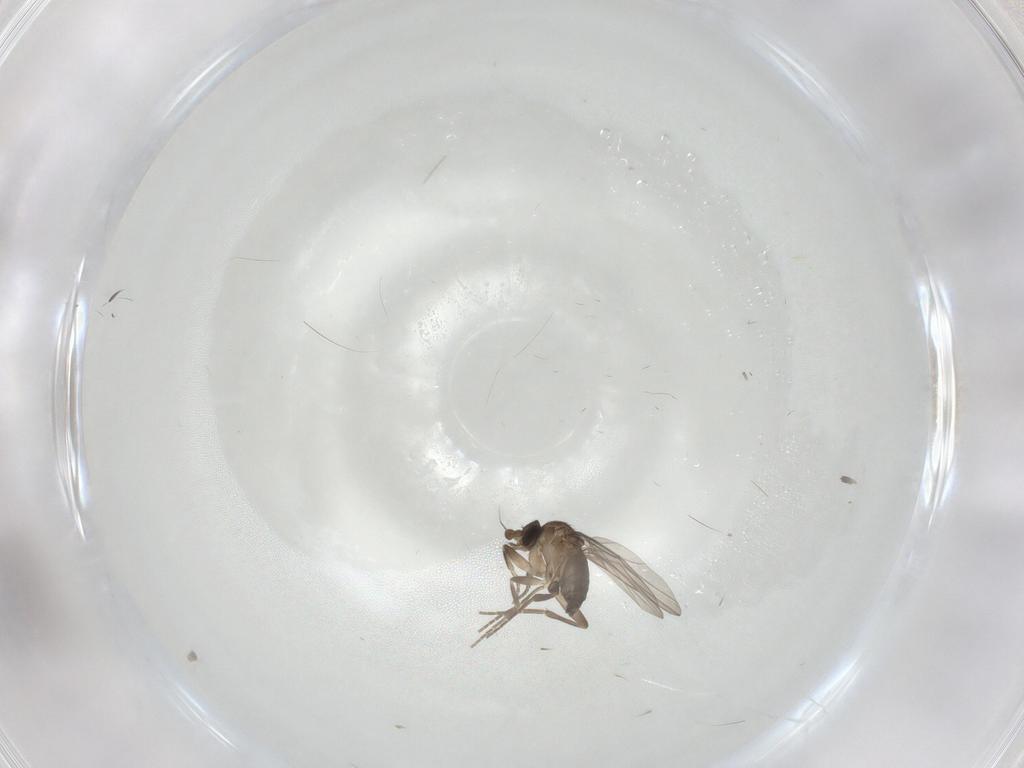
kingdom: Animalia
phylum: Arthropoda
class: Insecta
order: Diptera
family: Phoridae
